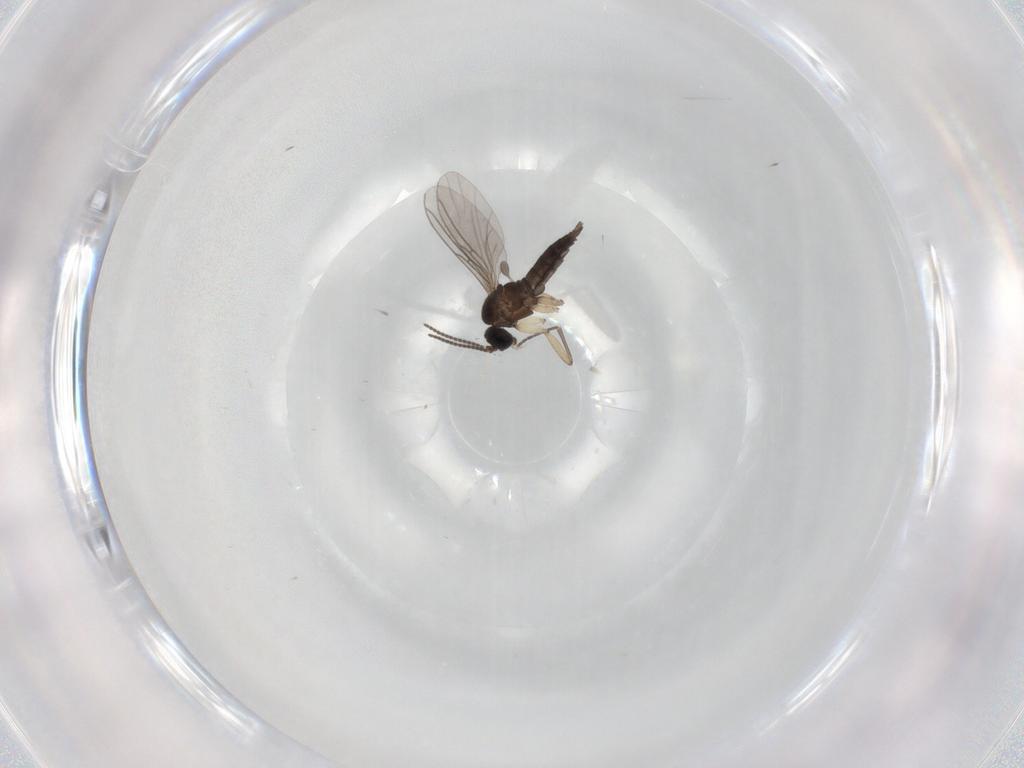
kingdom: Animalia
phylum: Arthropoda
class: Insecta
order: Diptera
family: Sciaridae
